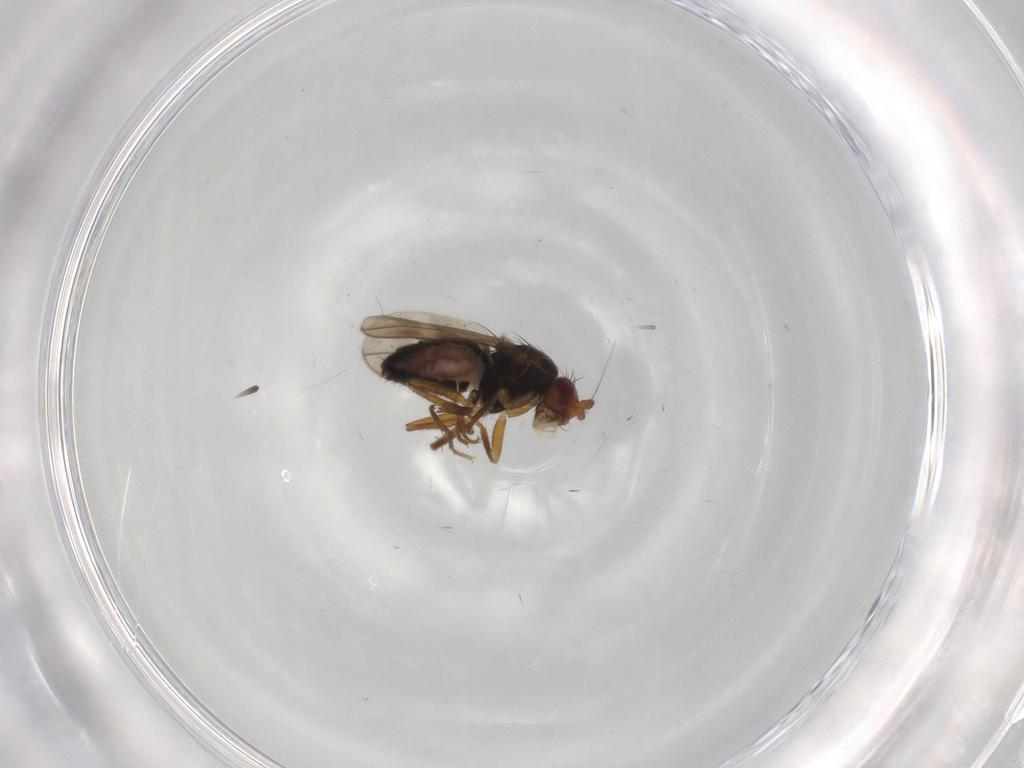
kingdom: Animalia
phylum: Arthropoda
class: Insecta
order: Diptera
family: Sphaeroceridae
